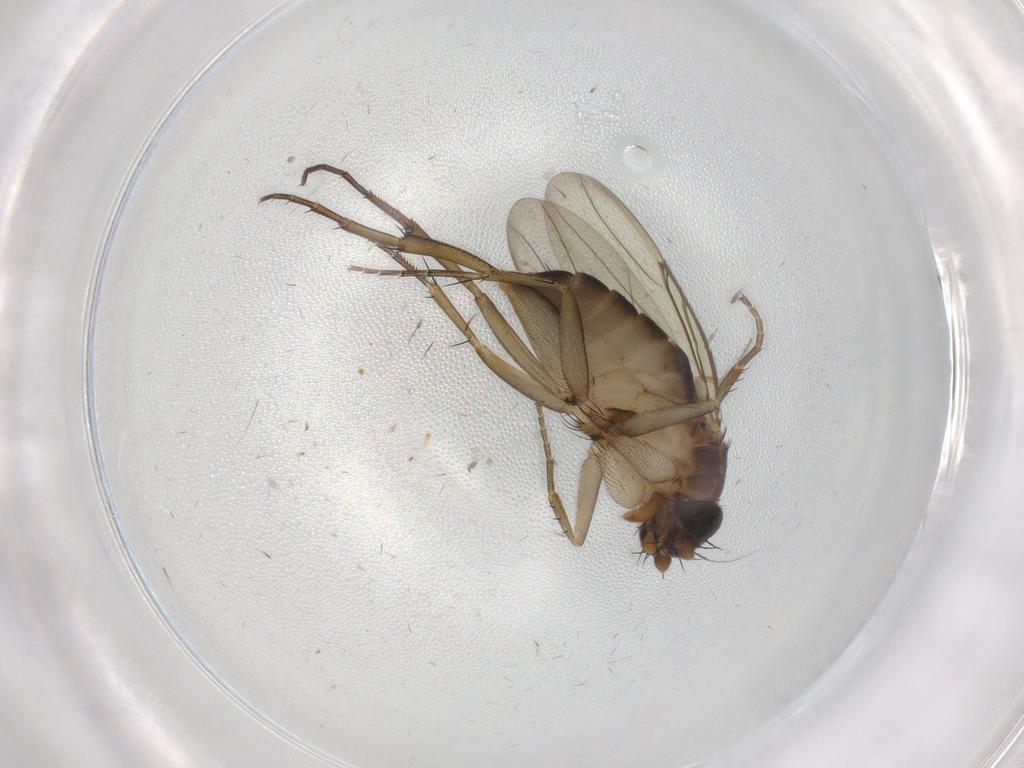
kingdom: Animalia
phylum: Arthropoda
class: Insecta
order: Diptera
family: Phoridae
